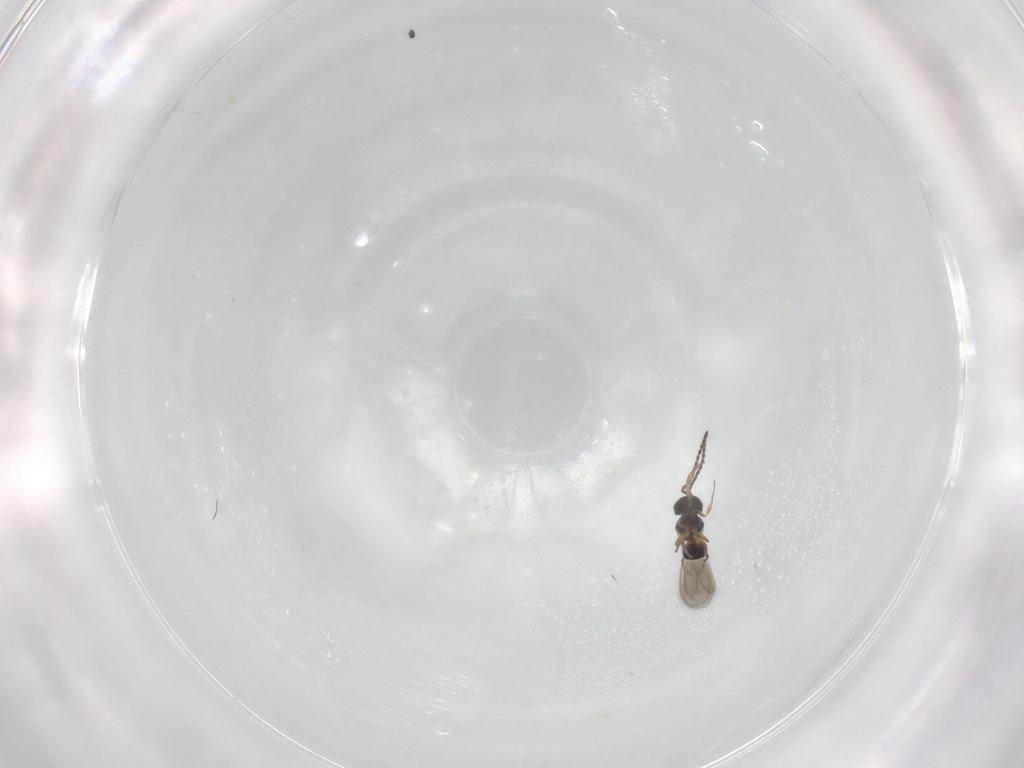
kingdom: Animalia
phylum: Arthropoda
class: Insecta
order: Hymenoptera
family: Scelionidae
